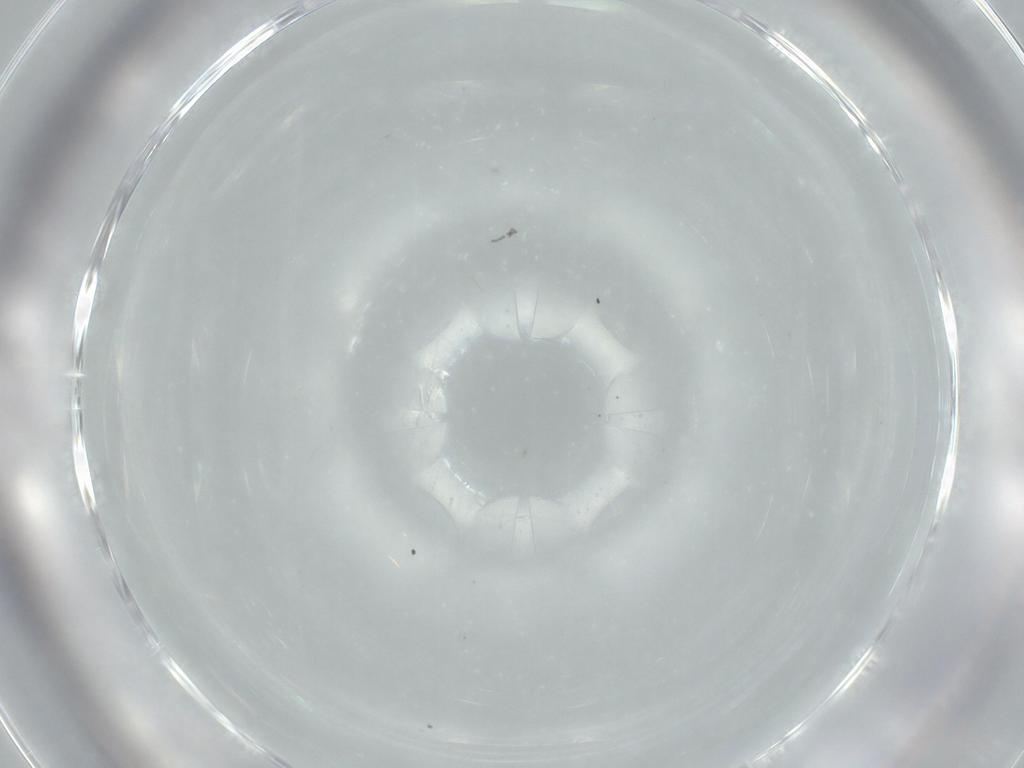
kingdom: Animalia
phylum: Arthropoda
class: Insecta
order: Diptera
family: Cecidomyiidae
